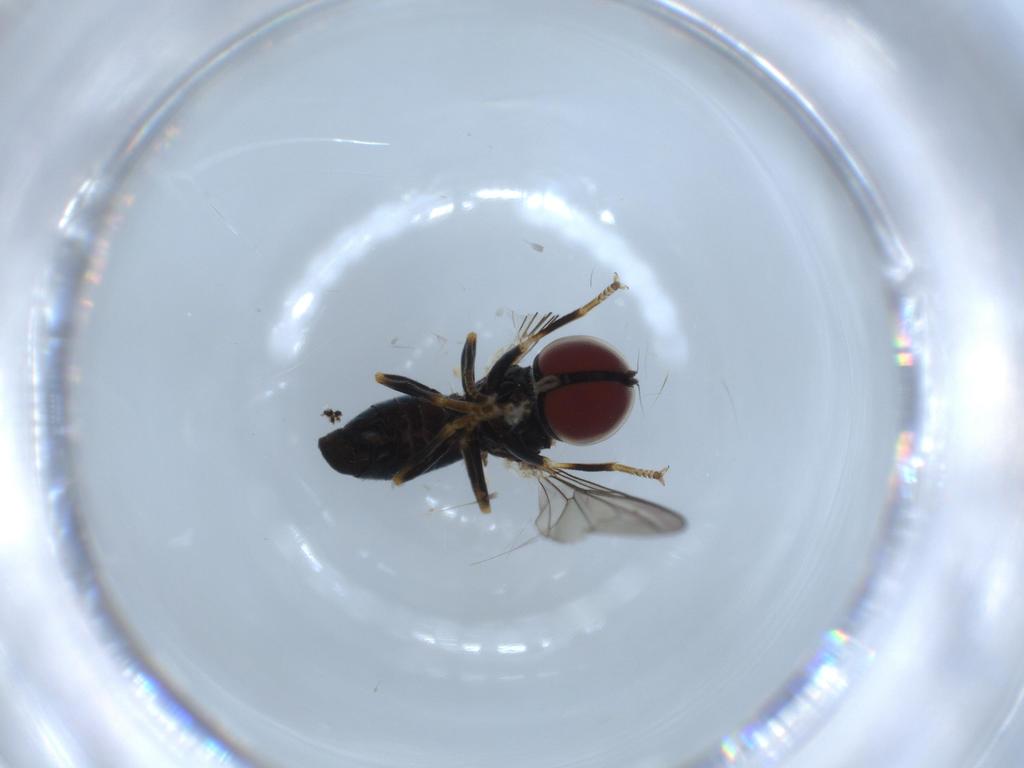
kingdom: Animalia
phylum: Arthropoda
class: Insecta
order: Diptera
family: Pipunculidae
